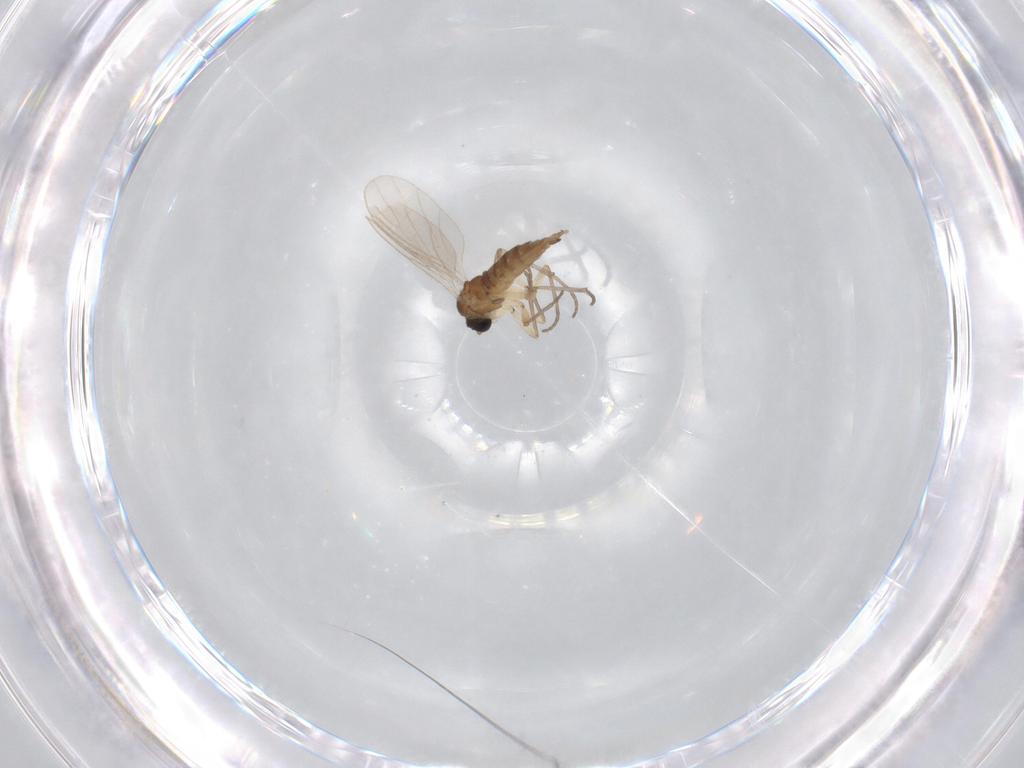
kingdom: Animalia
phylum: Arthropoda
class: Insecta
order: Diptera
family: Sciaridae
